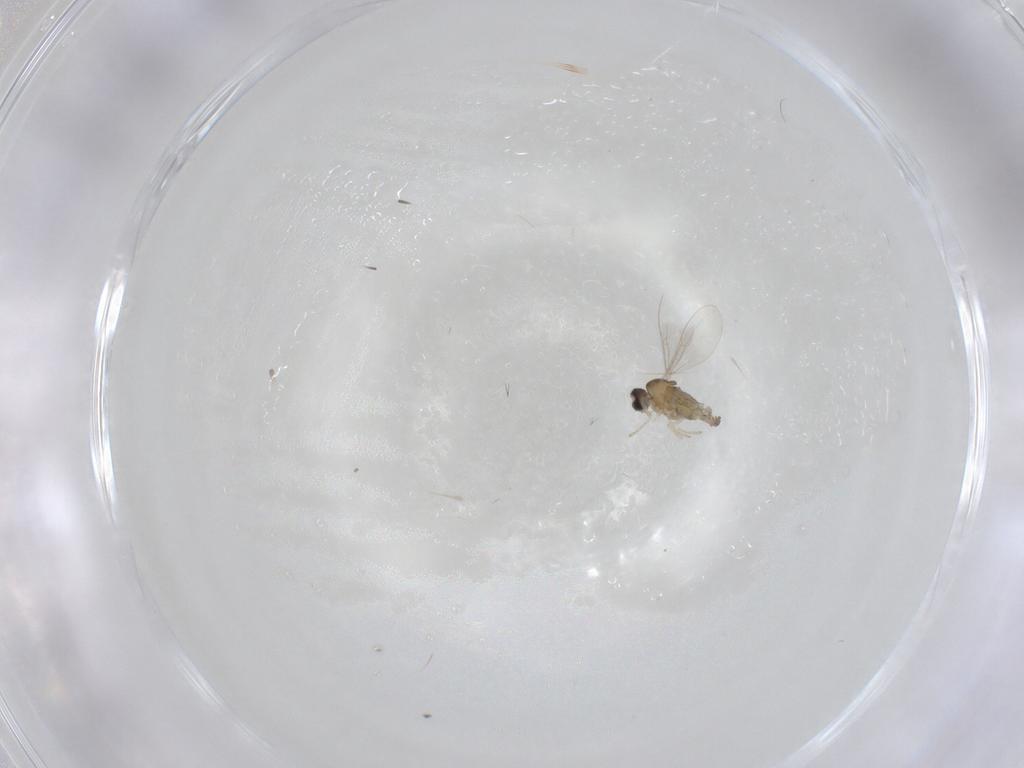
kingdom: Animalia
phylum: Arthropoda
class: Insecta
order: Diptera
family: Cecidomyiidae
